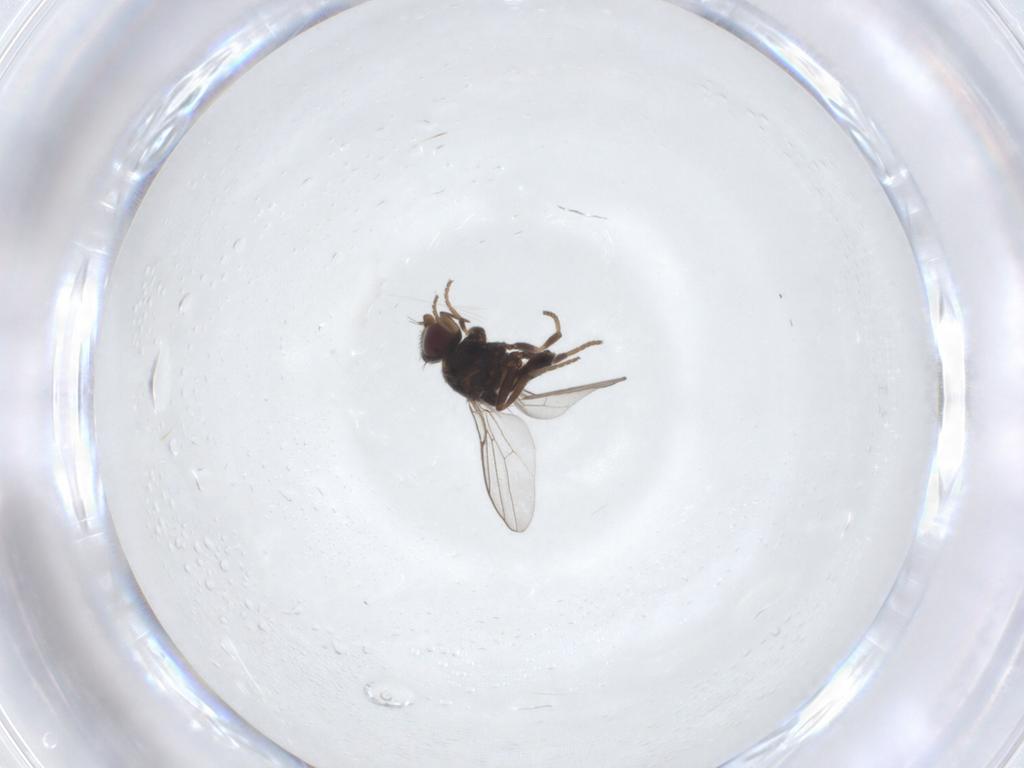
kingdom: Animalia
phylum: Arthropoda
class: Insecta
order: Diptera
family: Chloropidae
